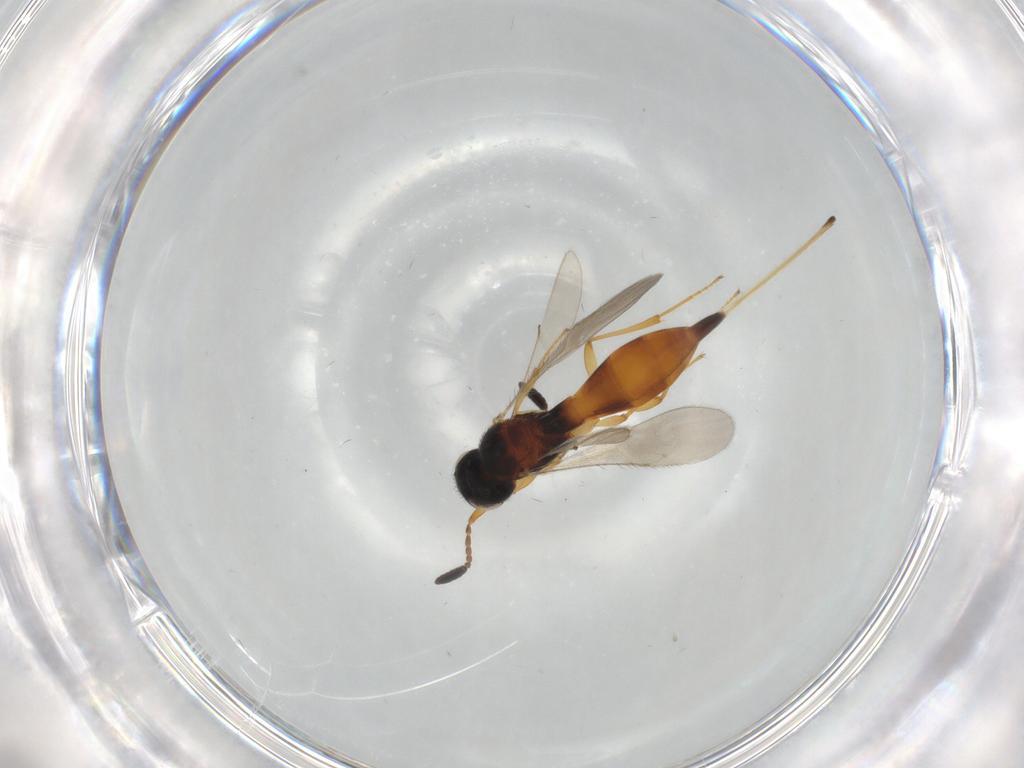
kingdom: Animalia
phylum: Arthropoda
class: Insecta
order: Hymenoptera
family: Scelionidae
